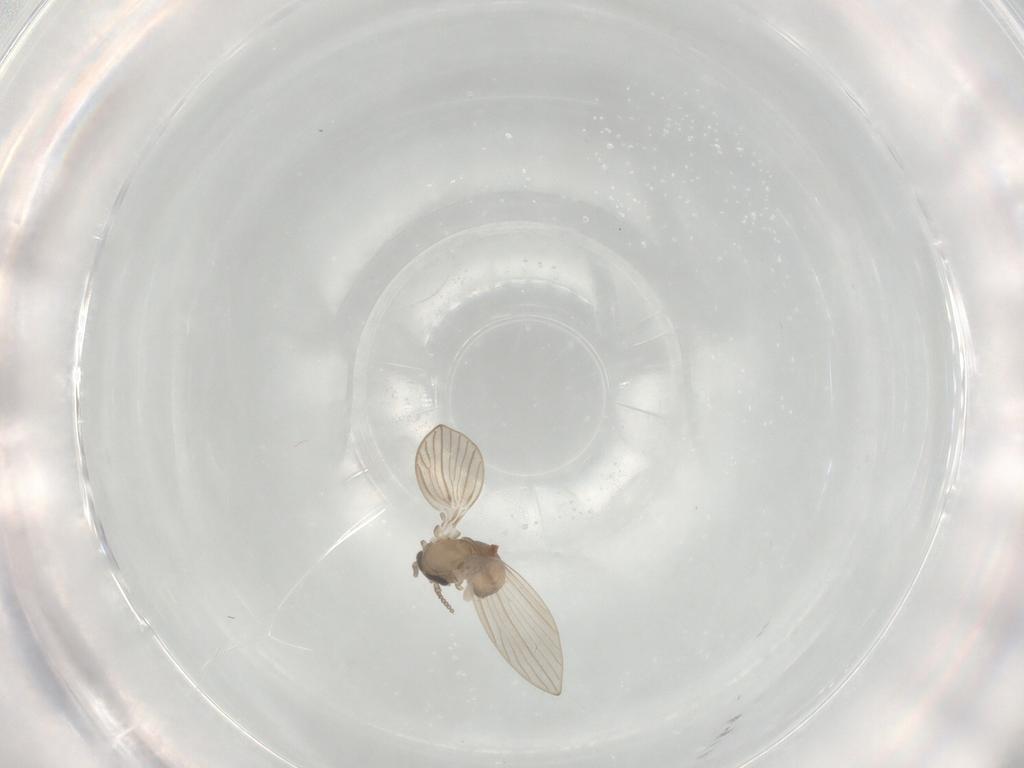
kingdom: Animalia
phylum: Arthropoda
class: Insecta
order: Diptera
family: Psychodidae
